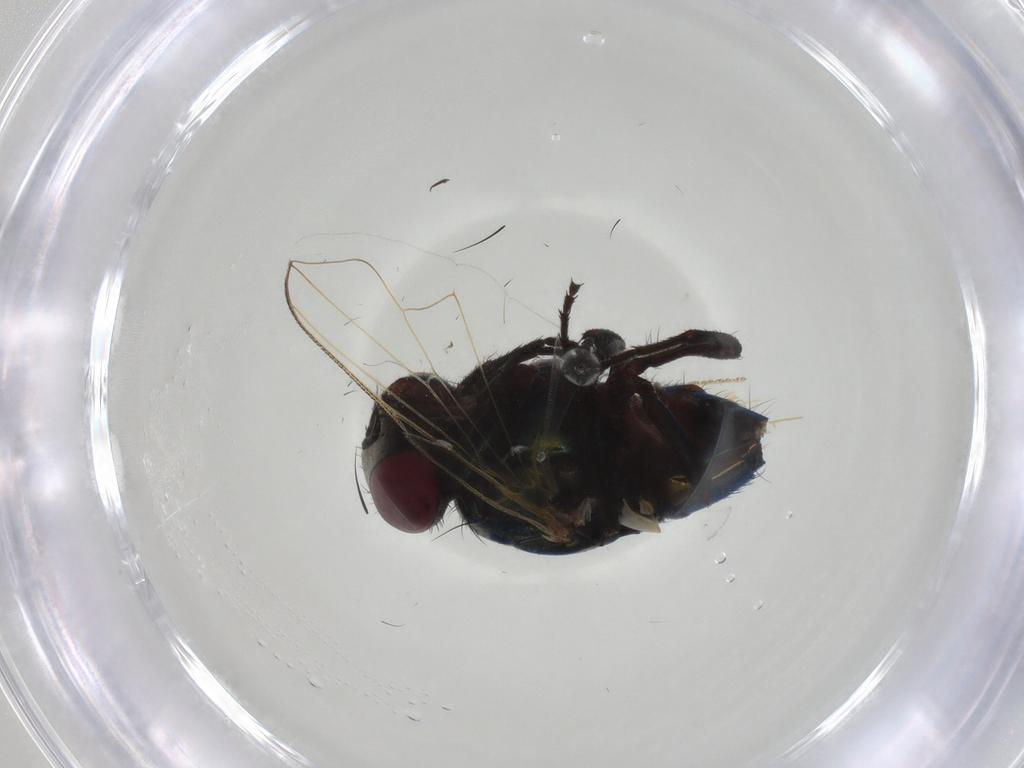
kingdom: Animalia
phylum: Arthropoda
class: Insecta
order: Diptera
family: Muscidae
